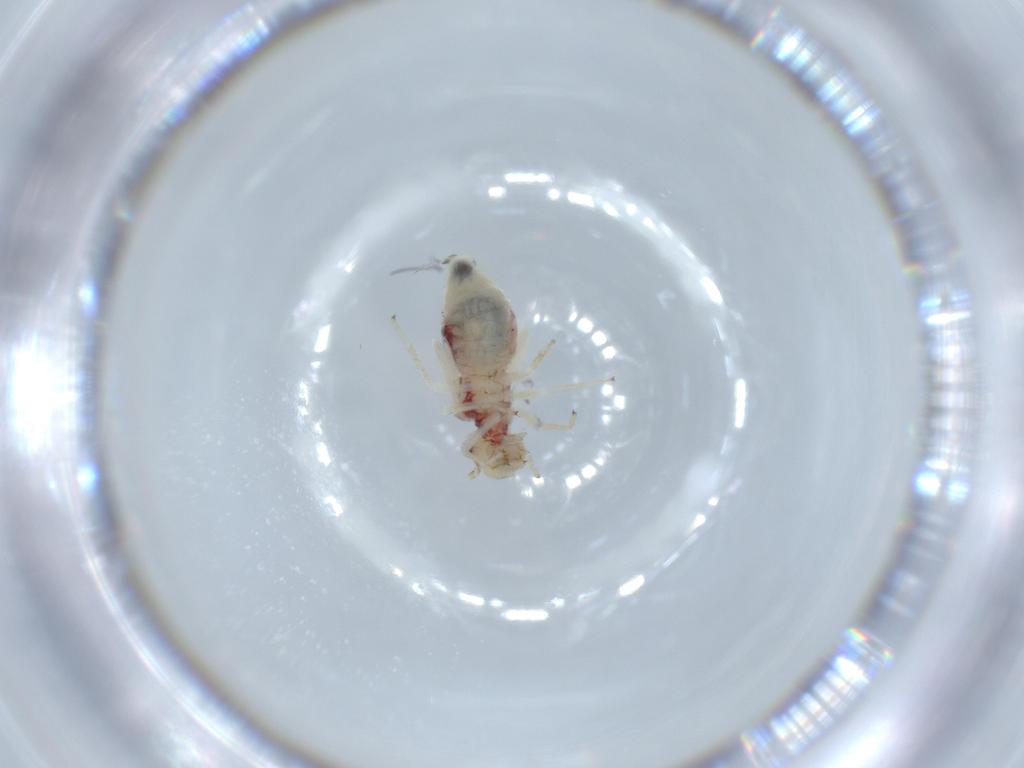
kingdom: Animalia
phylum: Arthropoda
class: Insecta
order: Psocodea
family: Caeciliusidae
